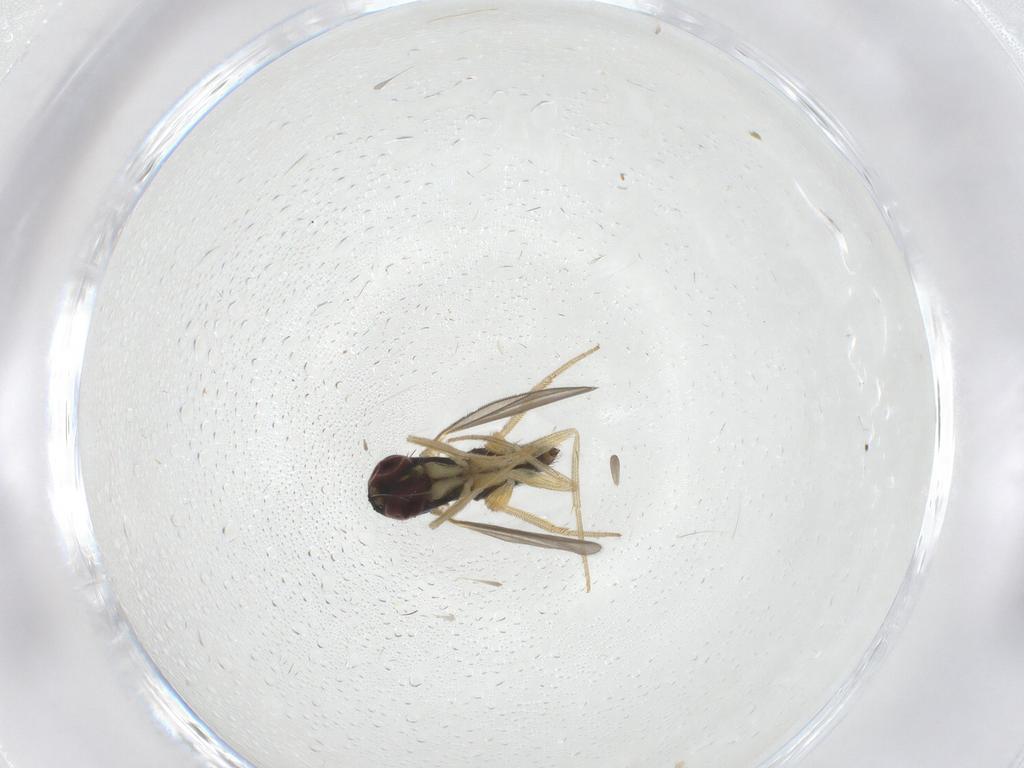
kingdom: Animalia
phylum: Arthropoda
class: Insecta
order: Diptera
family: Dolichopodidae
